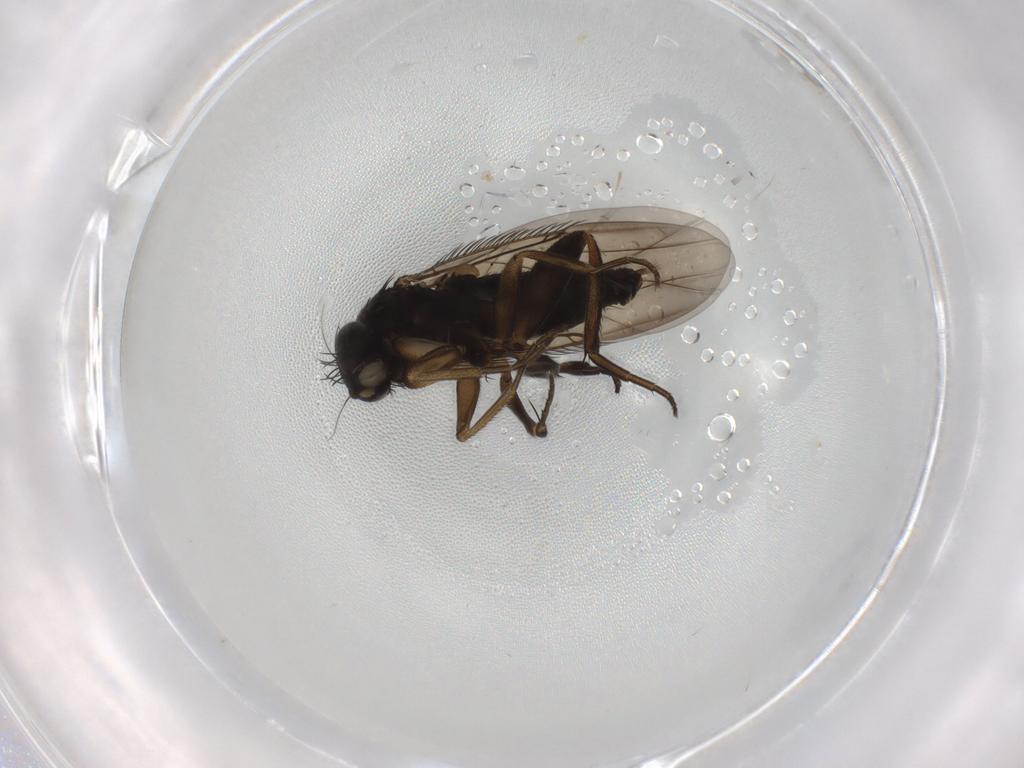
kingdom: Animalia
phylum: Arthropoda
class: Insecta
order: Diptera
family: Phoridae
